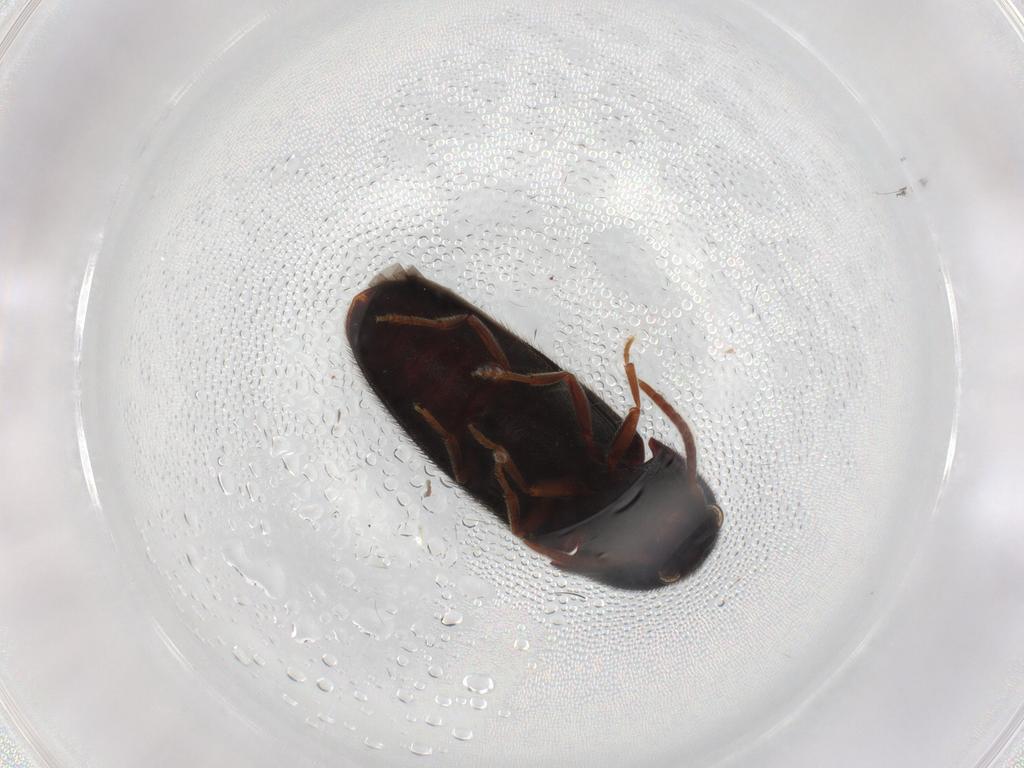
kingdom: Animalia
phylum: Arthropoda
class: Insecta
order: Coleoptera
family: Eucnemidae
